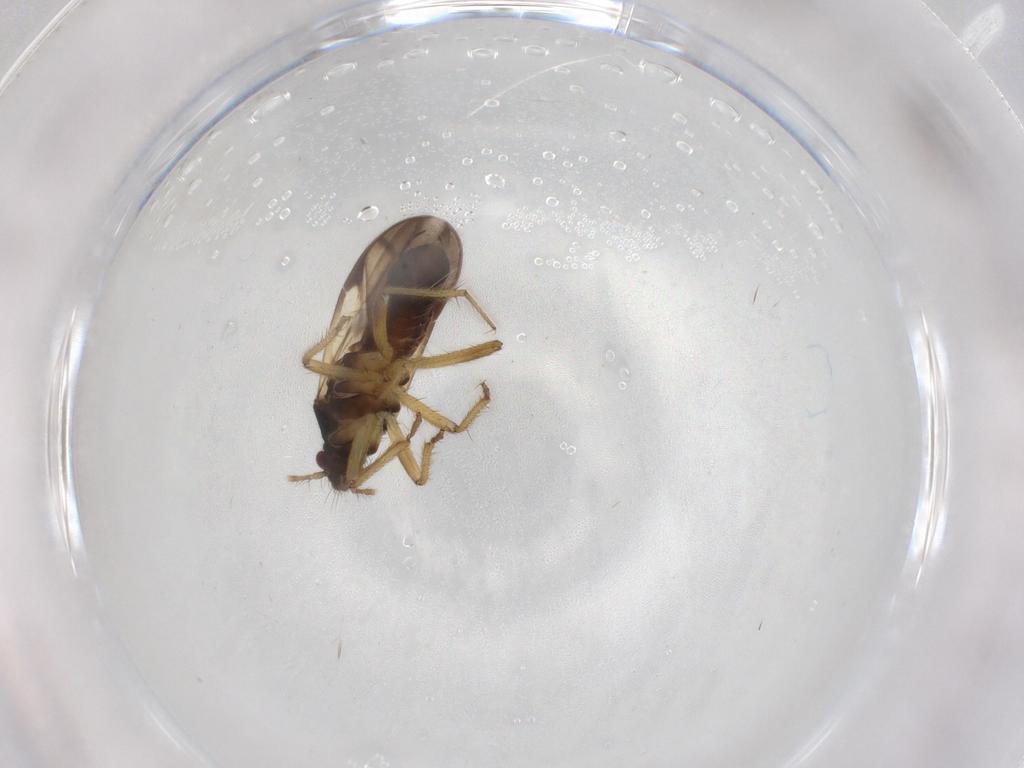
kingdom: Animalia
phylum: Arthropoda
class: Insecta
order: Hemiptera
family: Ceratocombidae
